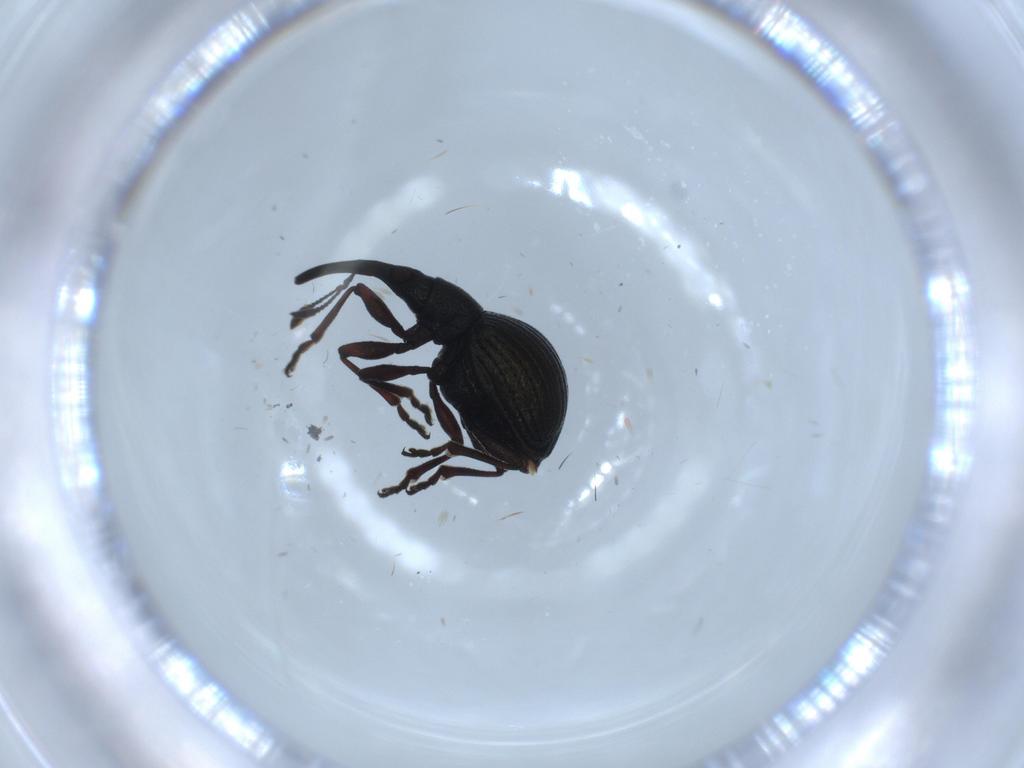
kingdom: Animalia
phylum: Arthropoda
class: Insecta
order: Coleoptera
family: Brentidae
